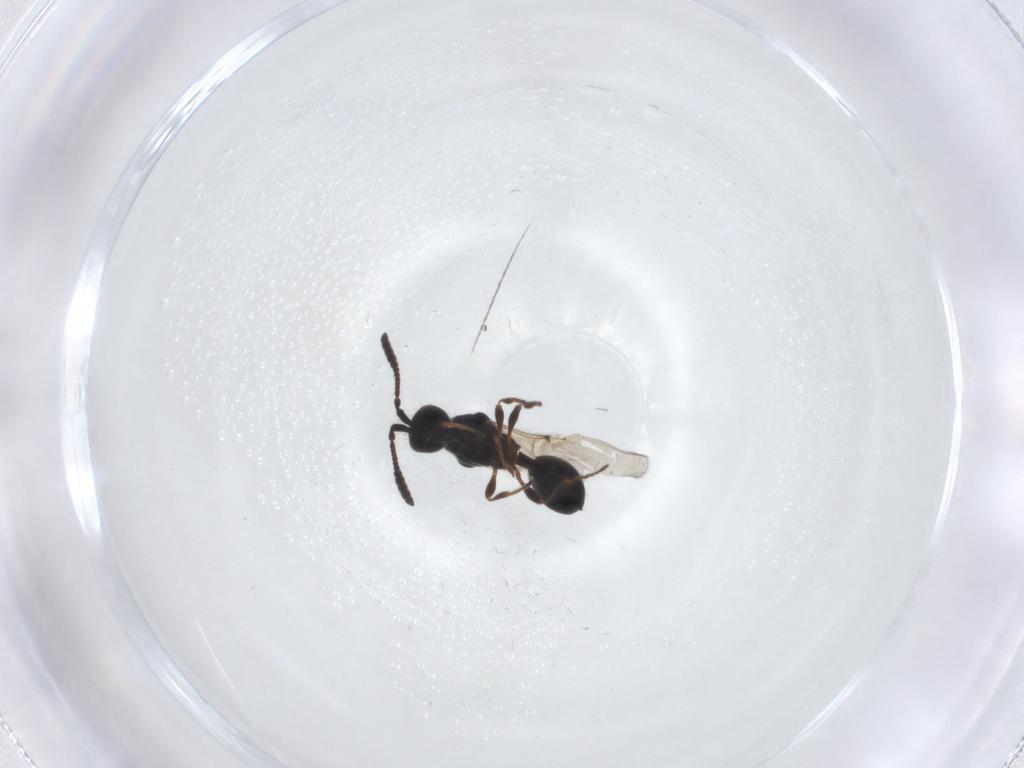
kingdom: Animalia
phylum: Arthropoda
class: Insecta
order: Hymenoptera
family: Diapriidae
